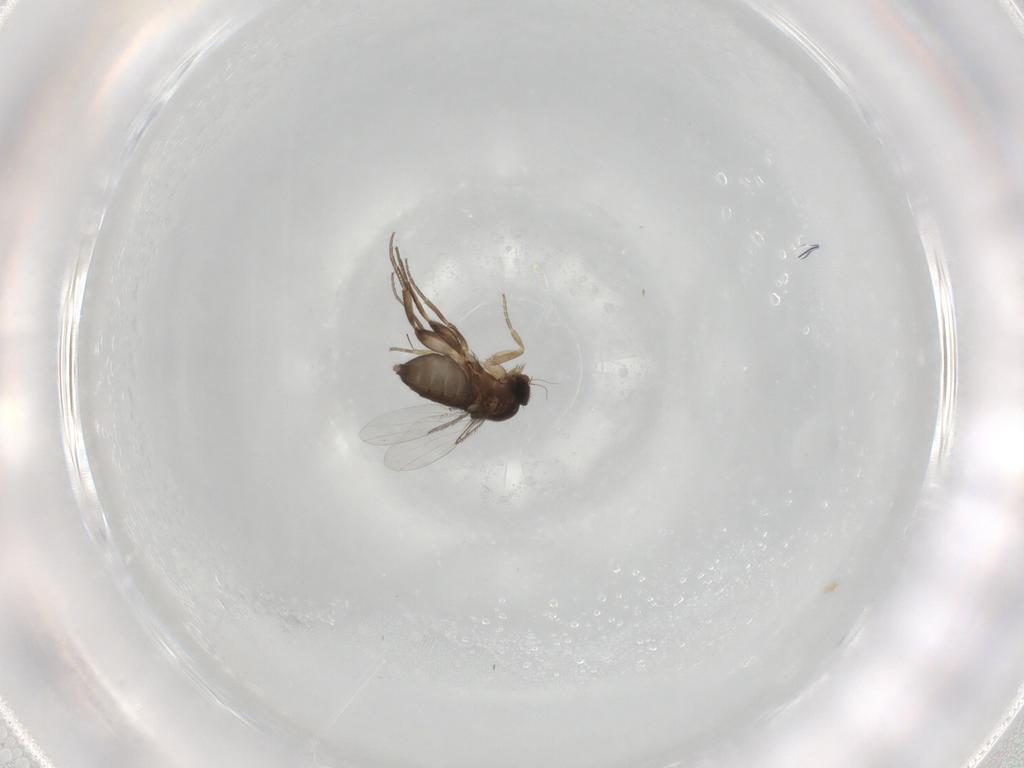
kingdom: Animalia
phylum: Arthropoda
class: Insecta
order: Diptera
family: Phoridae
